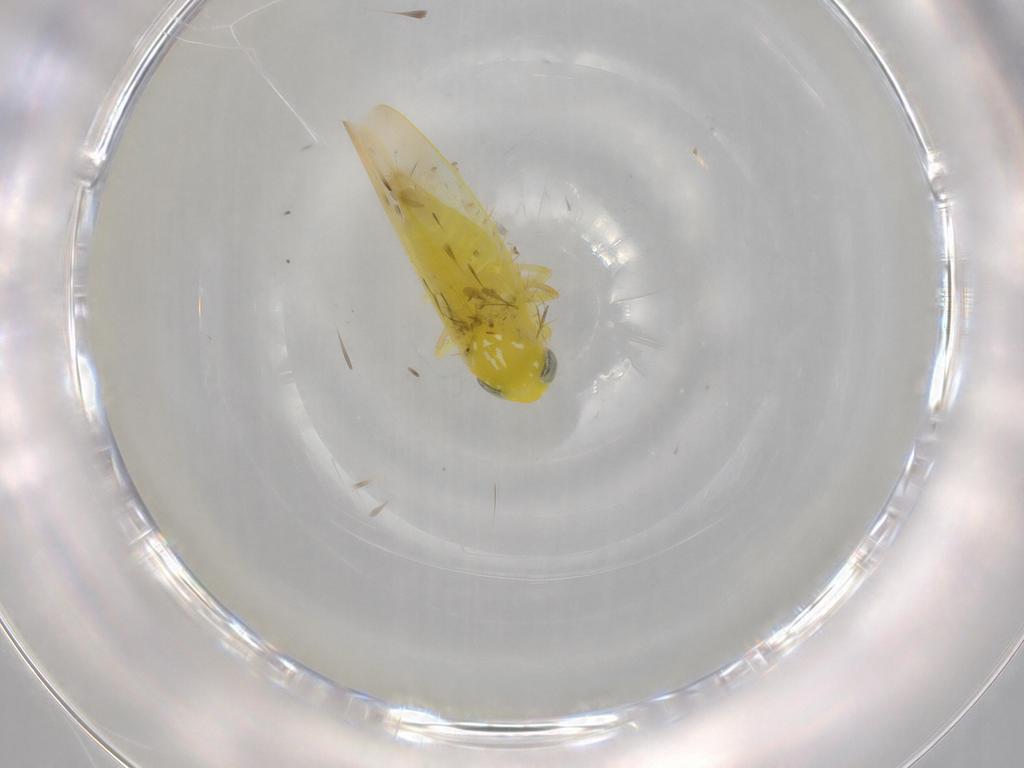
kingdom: Animalia
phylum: Arthropoda
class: Insecta
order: Hemiptera
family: Cicadellidae
